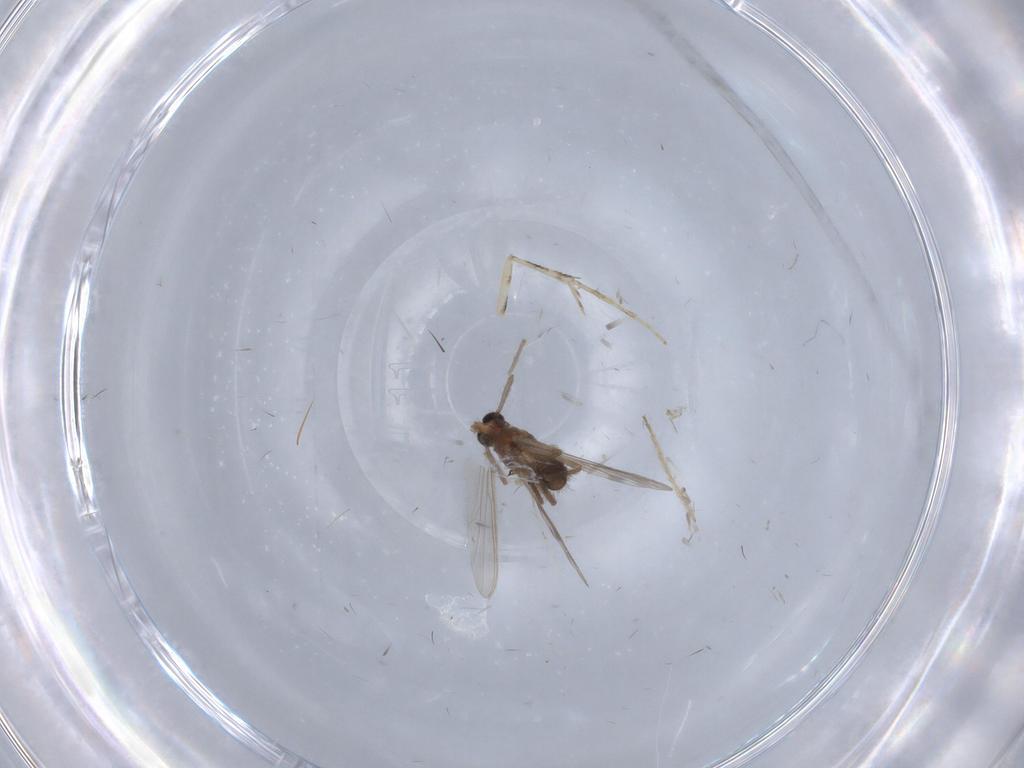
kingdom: Animalia
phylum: Arthropoda
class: Insecta
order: Diptera
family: Chironomidae
